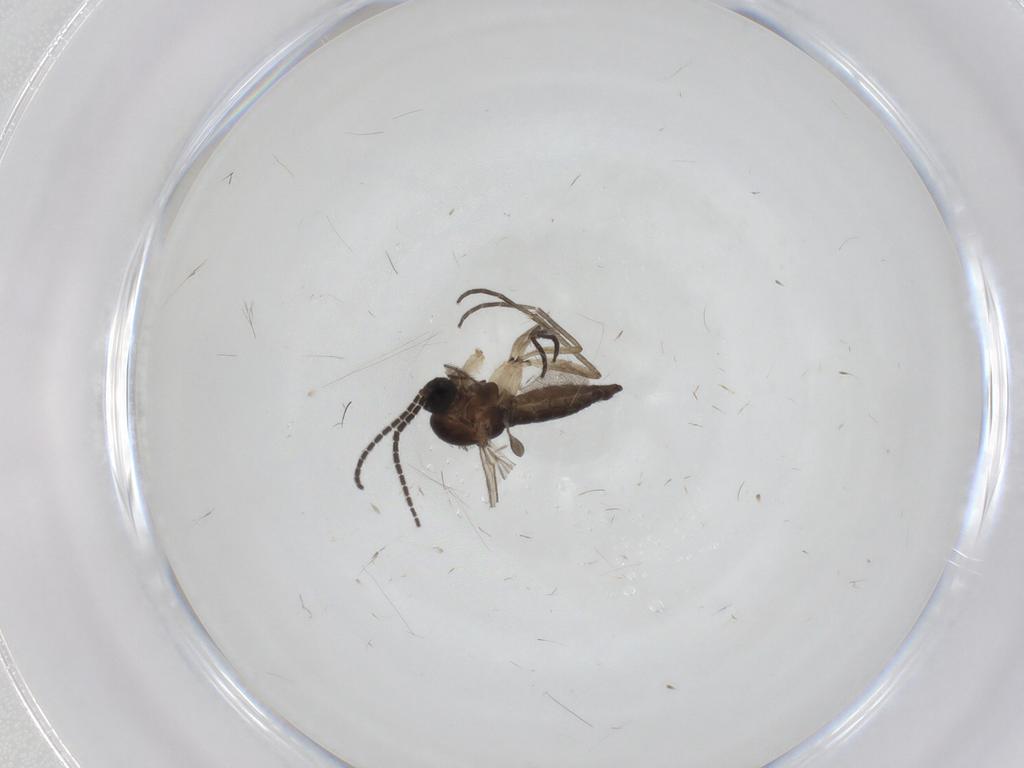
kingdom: Animalia
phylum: Arthropoda
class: Insecta
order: Diptera
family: Sciaridae
